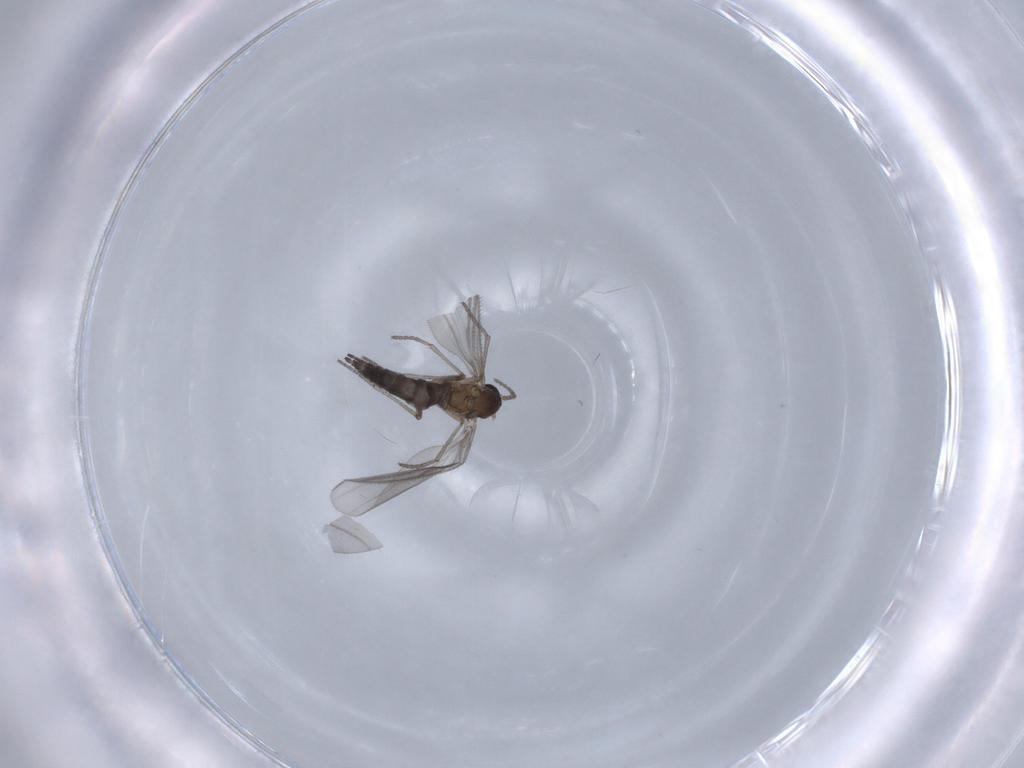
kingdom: Animalia
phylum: Arthropoda
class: Insecta
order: Diptera
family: Sciaridae
